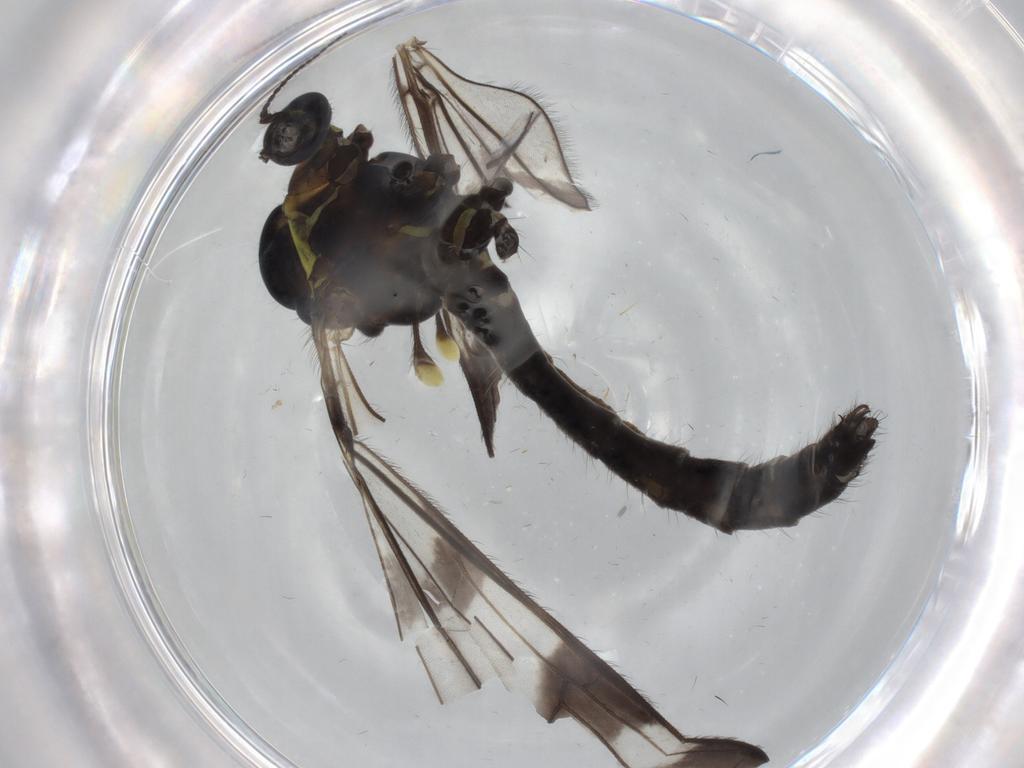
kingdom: Animalia
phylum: Arthropoda
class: Insecta
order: Diptera
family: Limoniidae
